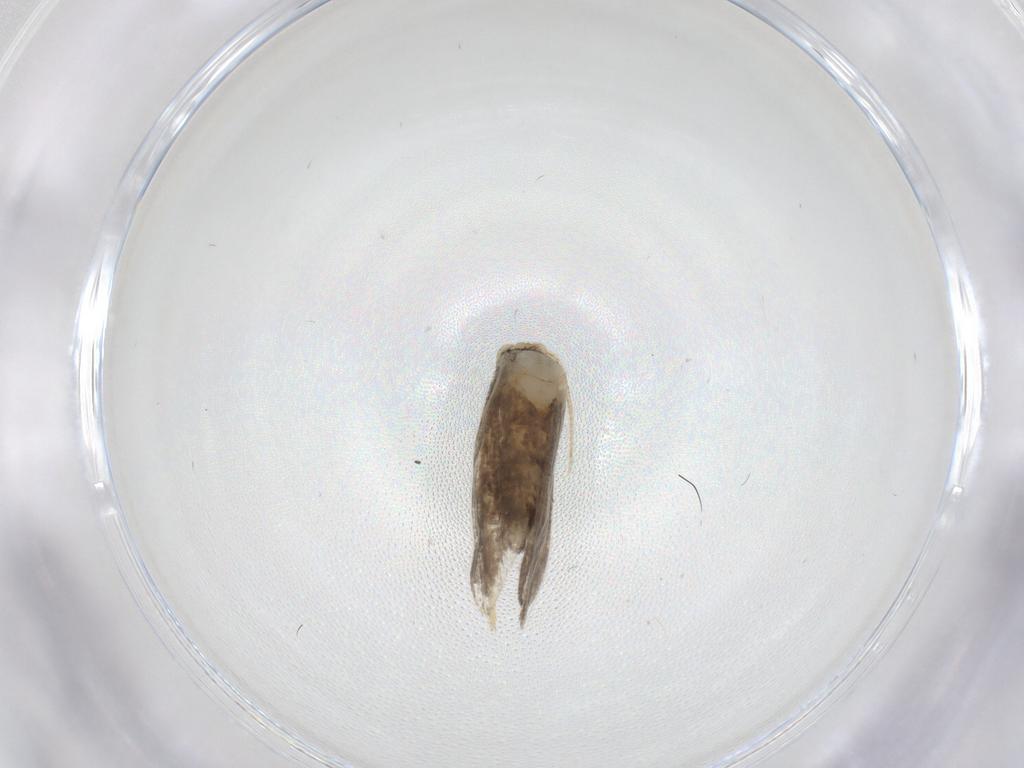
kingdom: Animalia
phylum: Arthropoda
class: Insecta
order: Lepidoptera
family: Psychidae
